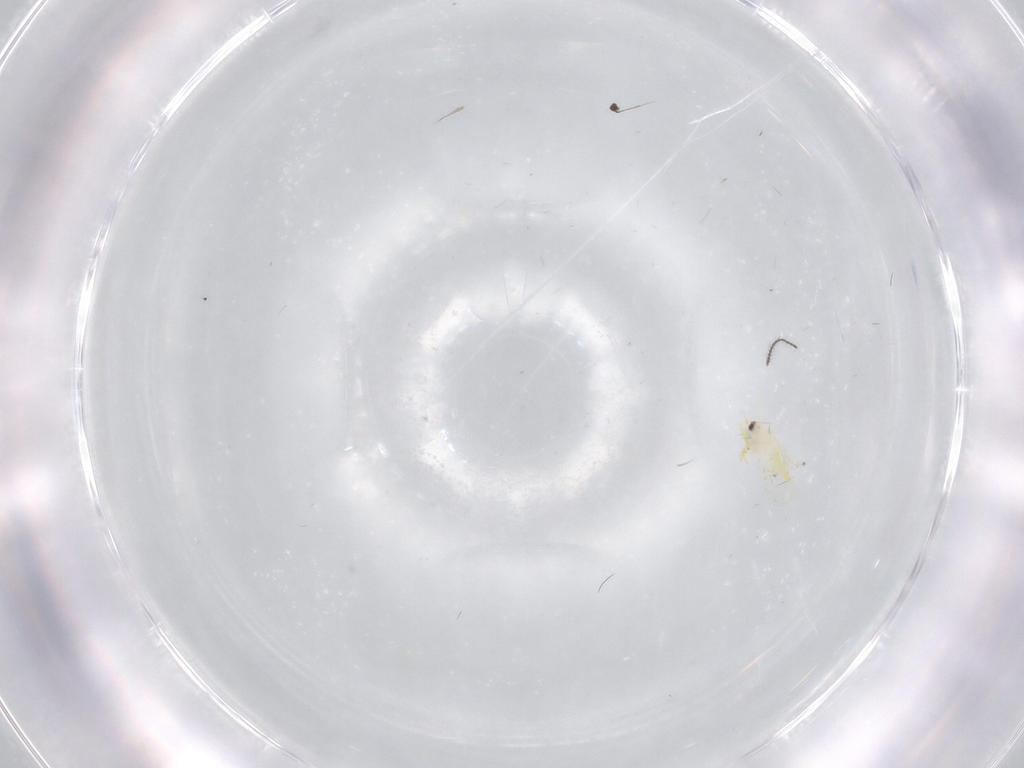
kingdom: Animalia
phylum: Arthropoda
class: Insecta
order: Hemiptera
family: Aleyrodidae
